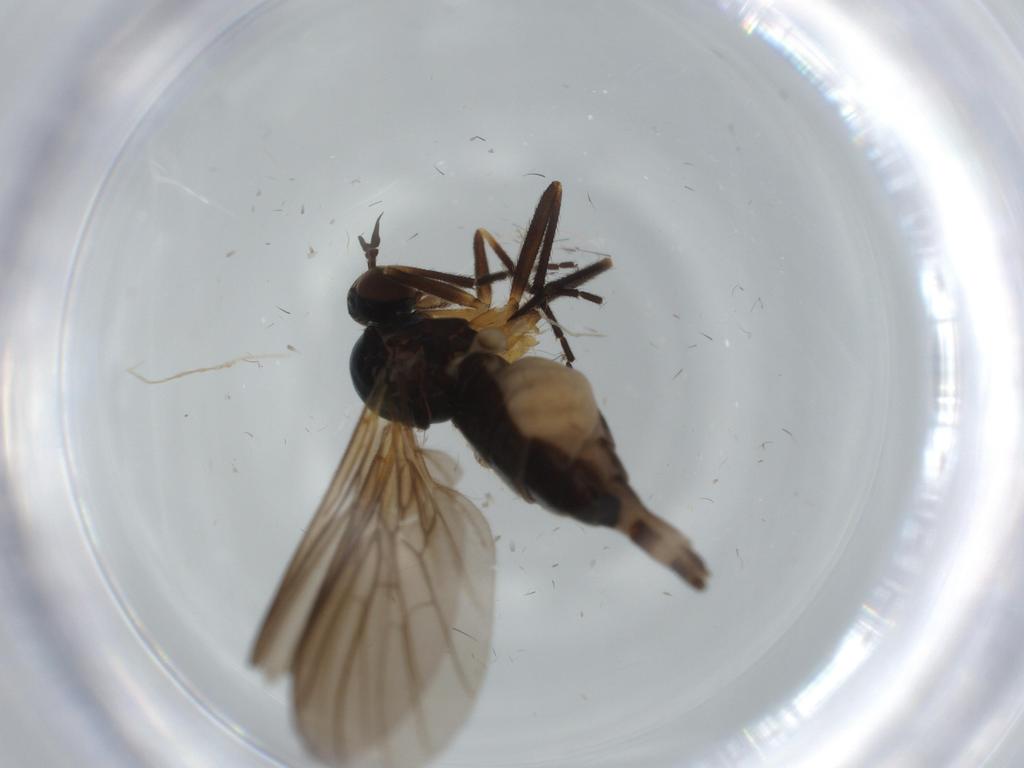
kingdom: Animalia
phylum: Arthropoda
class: Insecta
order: Diptera
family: Empididae
